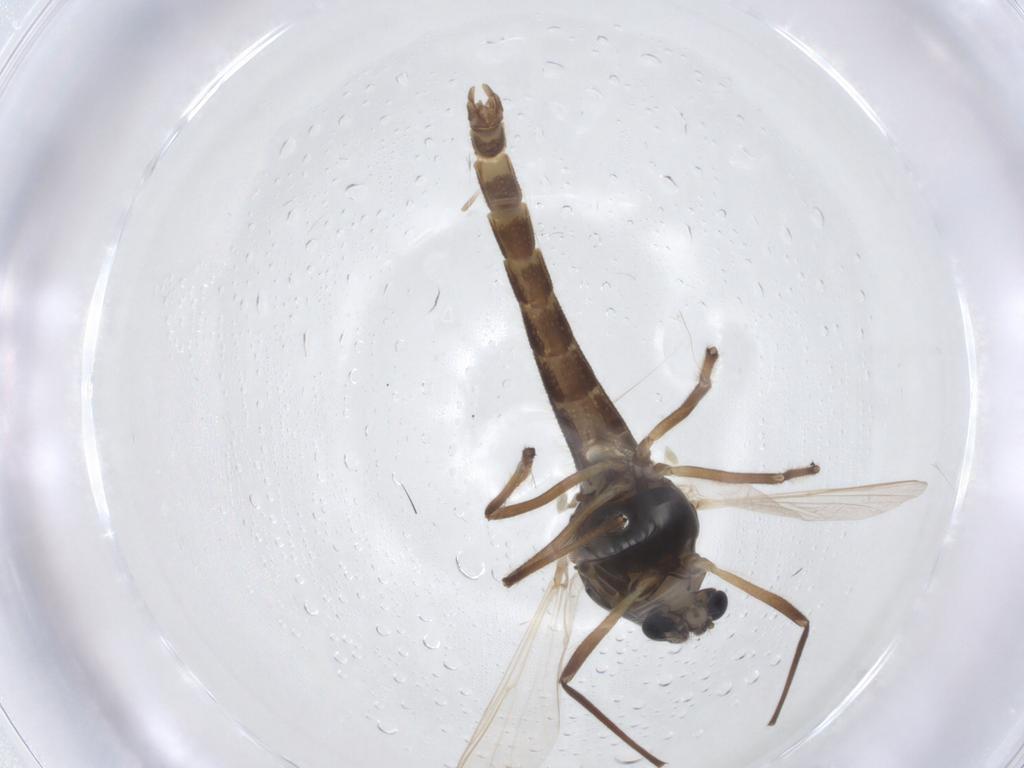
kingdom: Animalia
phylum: Arthropoda
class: Insecta
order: Diptera
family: Chironomidae
